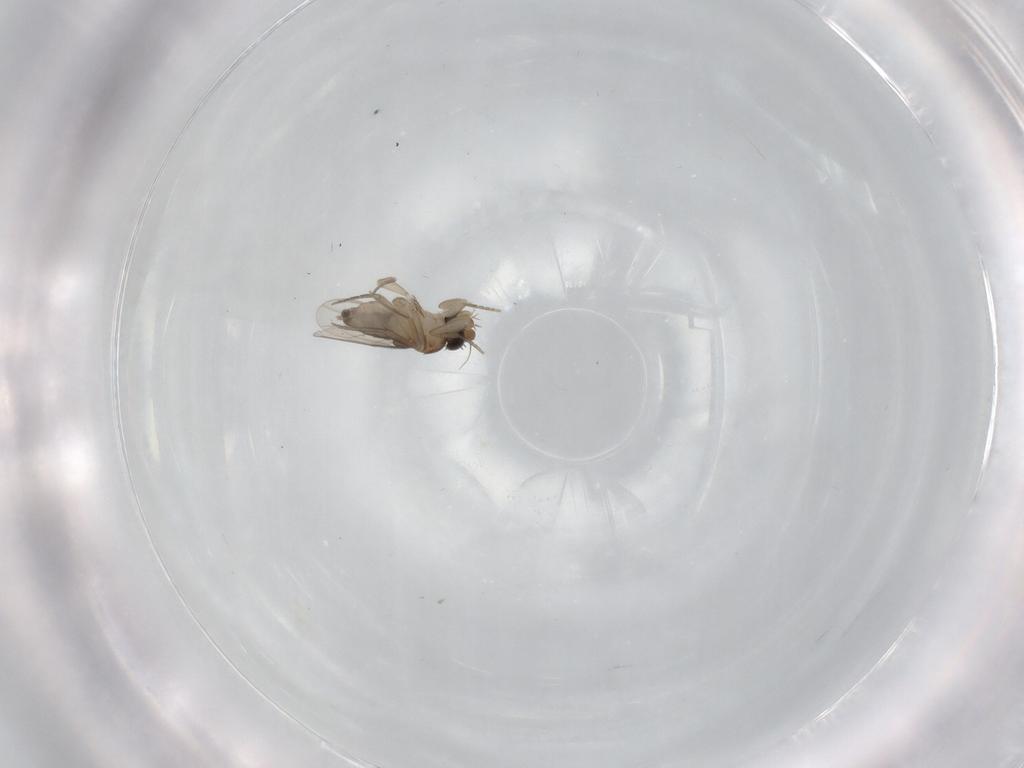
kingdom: Animalia
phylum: Arthropoda
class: Insecta
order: Diptera
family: Phoridae
